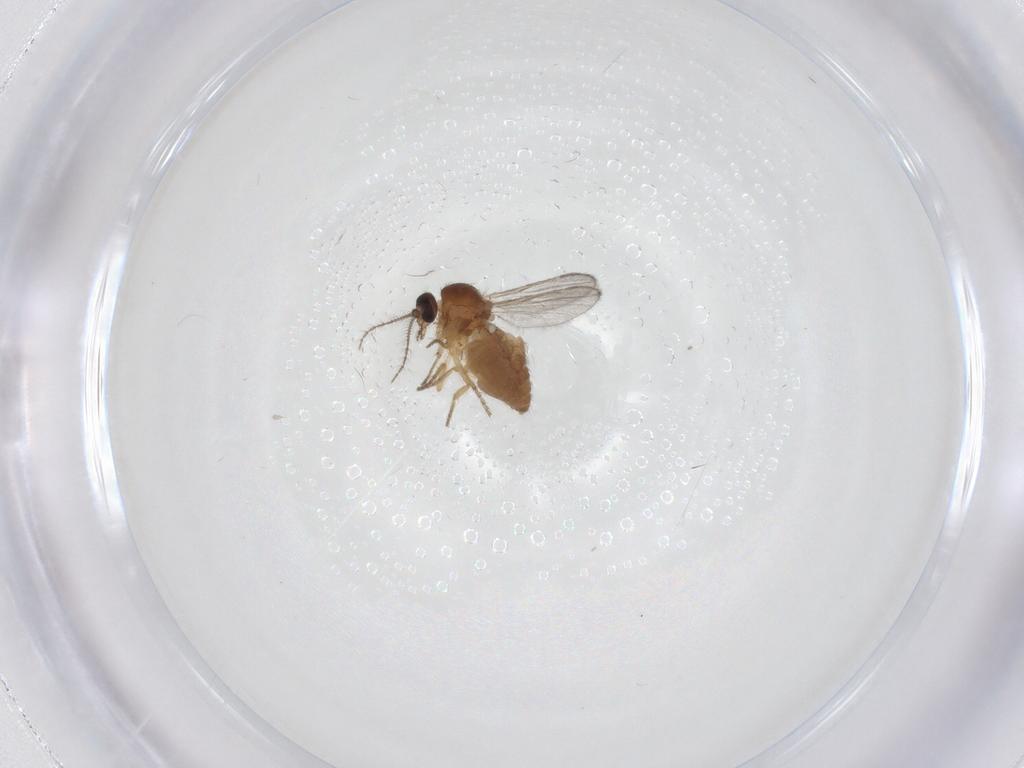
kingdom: Animalia
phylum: Arthropoda
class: Insecta
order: Diptera
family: Ceratopogonidae
